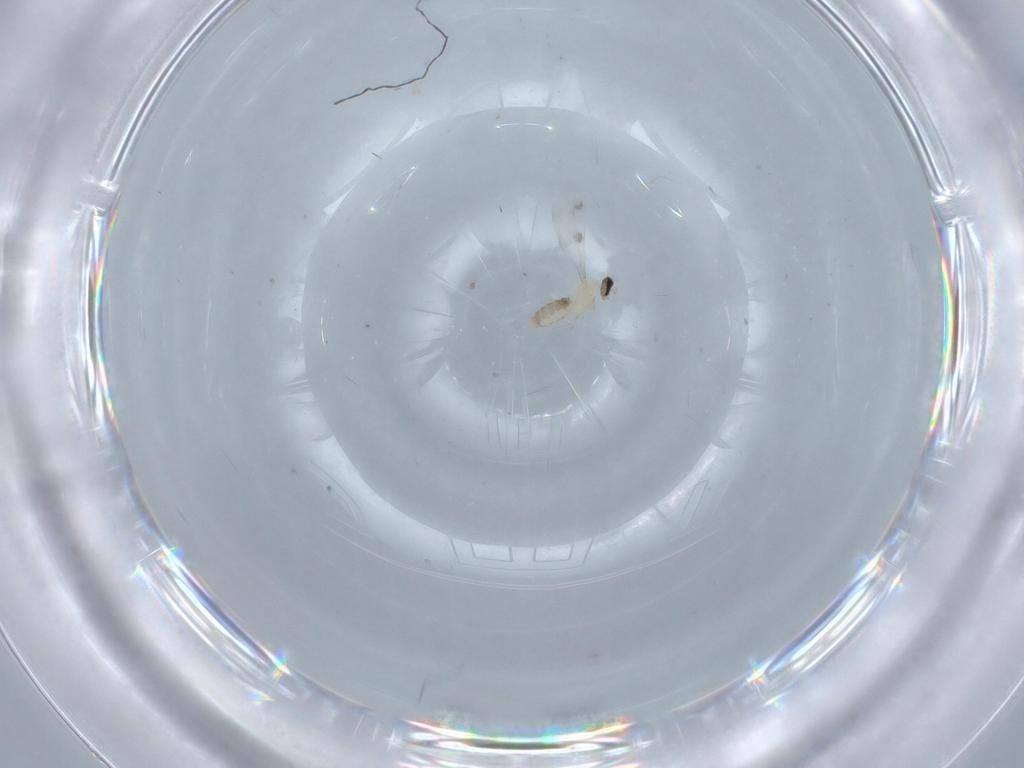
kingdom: Animalia
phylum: Arthropoda
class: Insecta
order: Diptera
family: Cecidomyiidae
